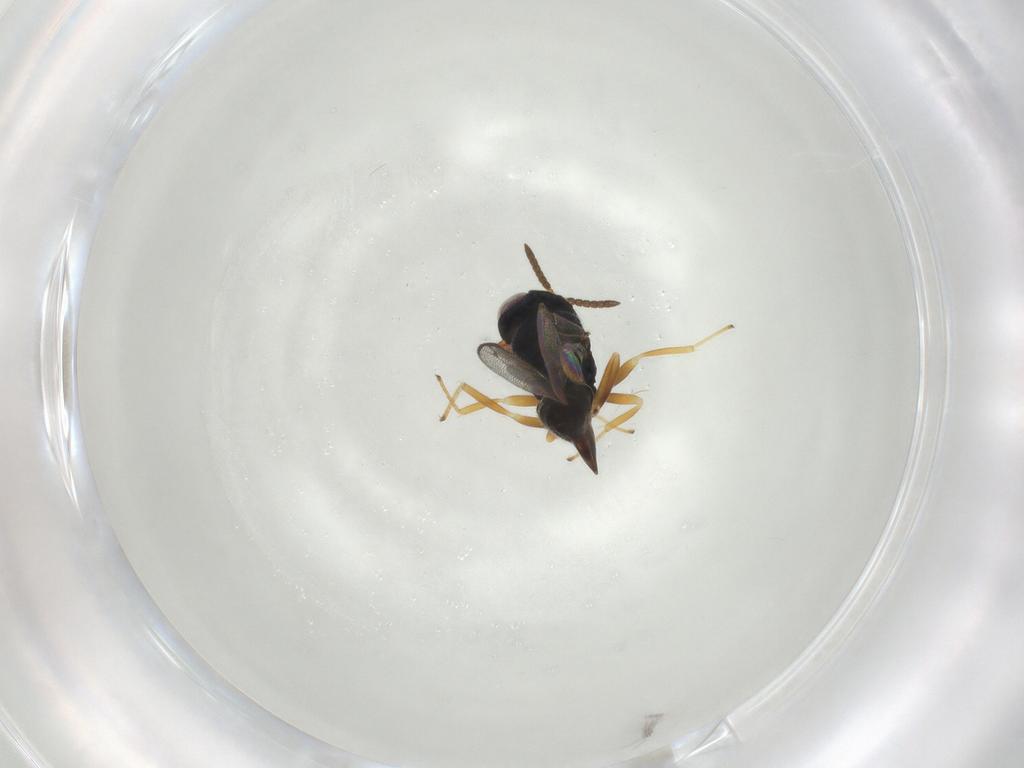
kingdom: Animalia
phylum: Arthropoda
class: Insecta
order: Hymenoptera
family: Pteromalidae
